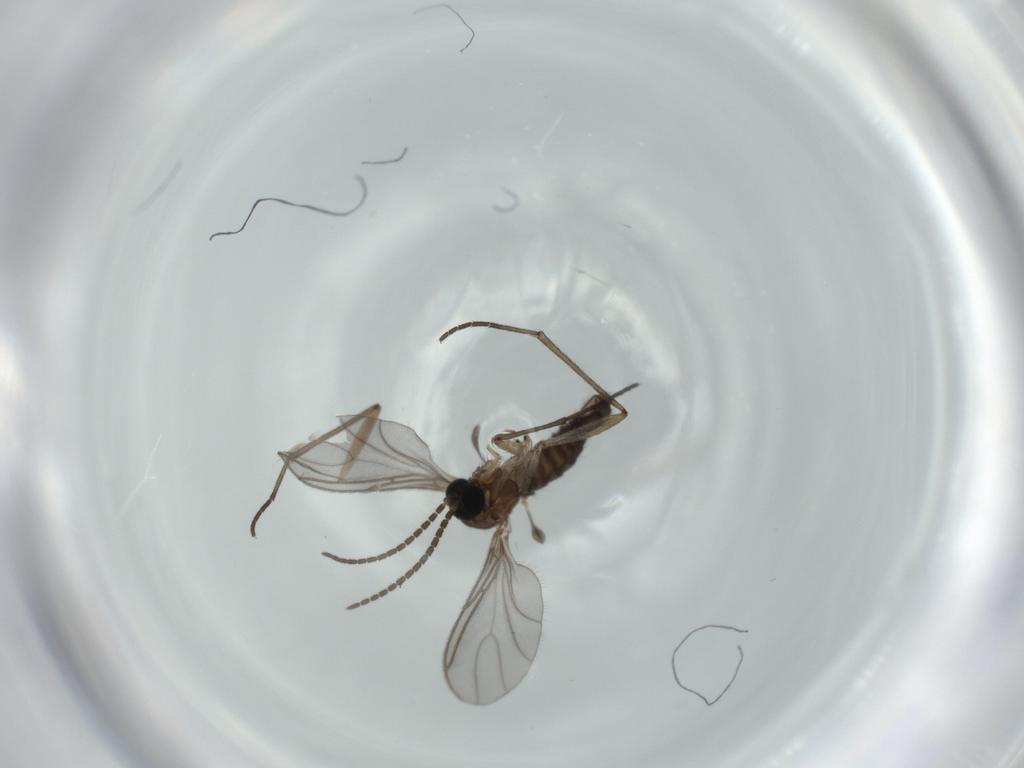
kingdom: Animalia
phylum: Arthropoda
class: Insecta
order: Diptera
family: Sciaridae
